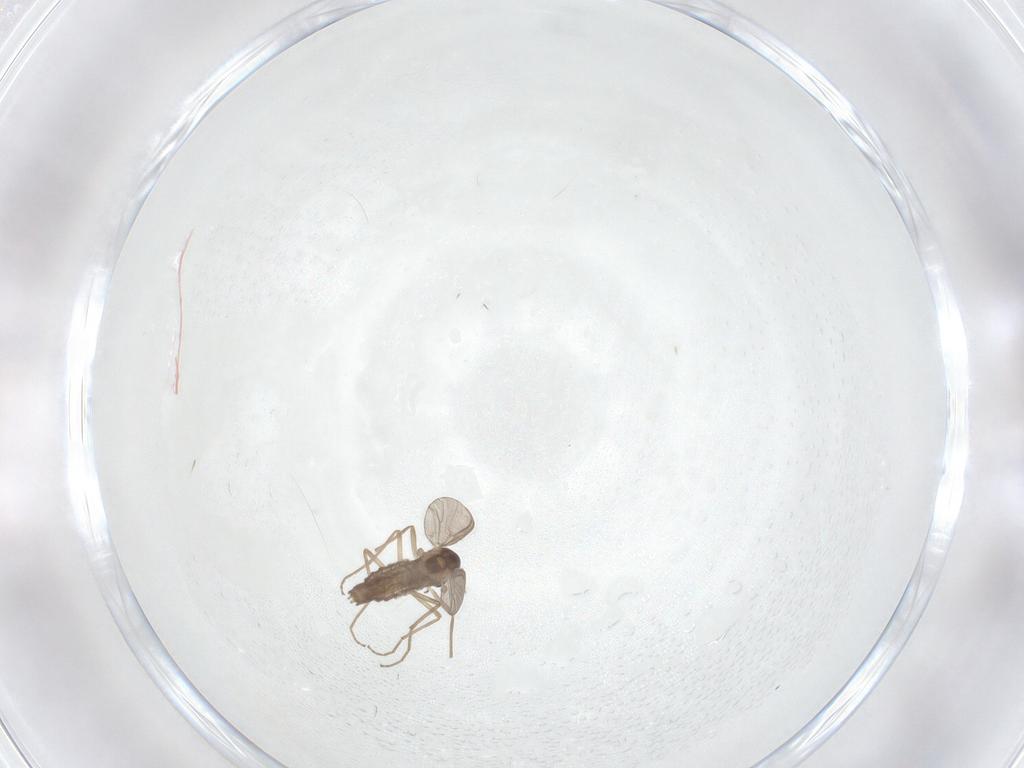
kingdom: Animalia
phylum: Arthropoda
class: Insecta
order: Diptera
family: Chironomidae
